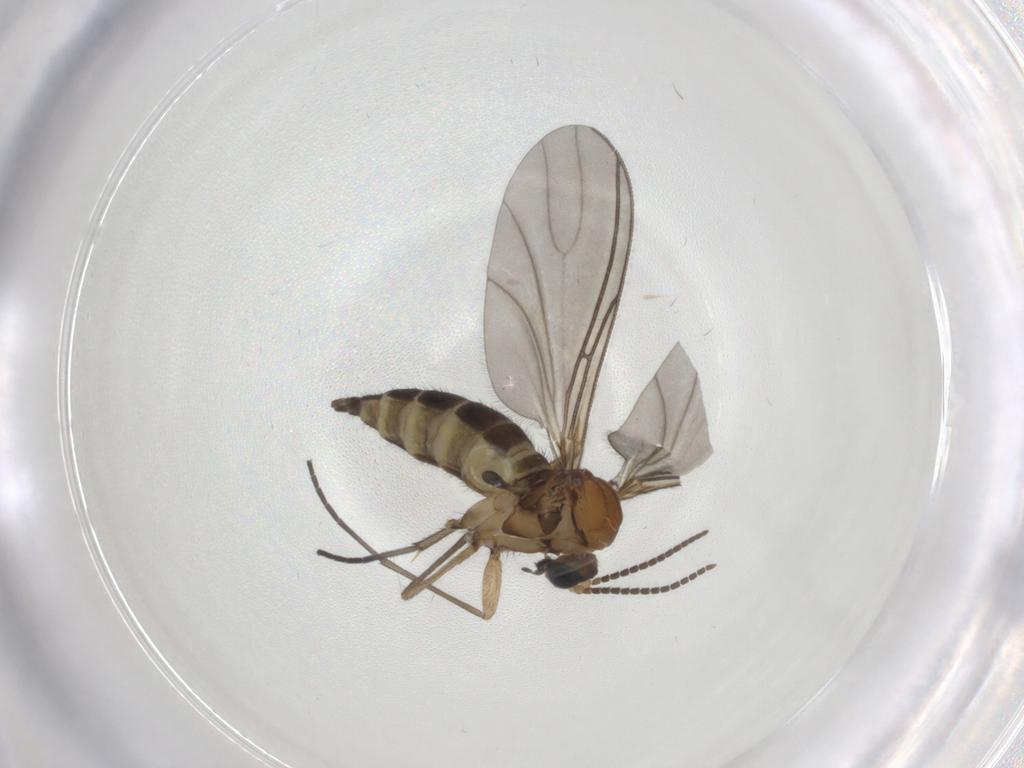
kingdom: Animalia
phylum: Arthropoda
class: Insecta
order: Diptera
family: Sciaridae
